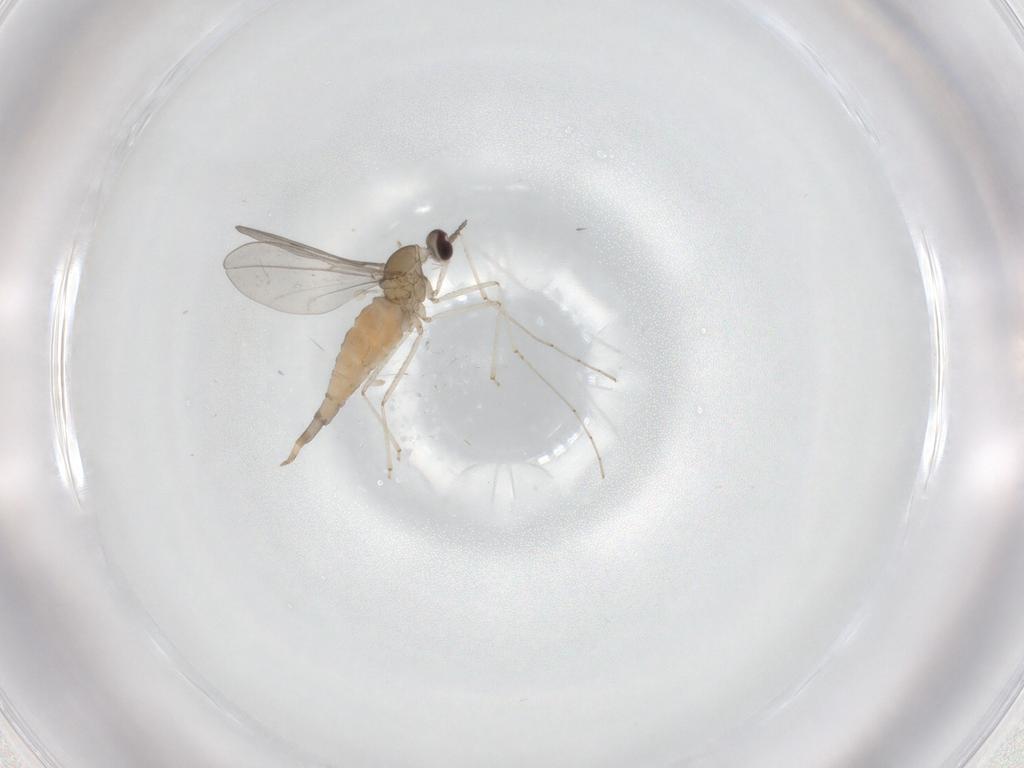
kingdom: Animalia
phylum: Arthropoda
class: Insecta
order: Diptera
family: Cecidomyiidae
